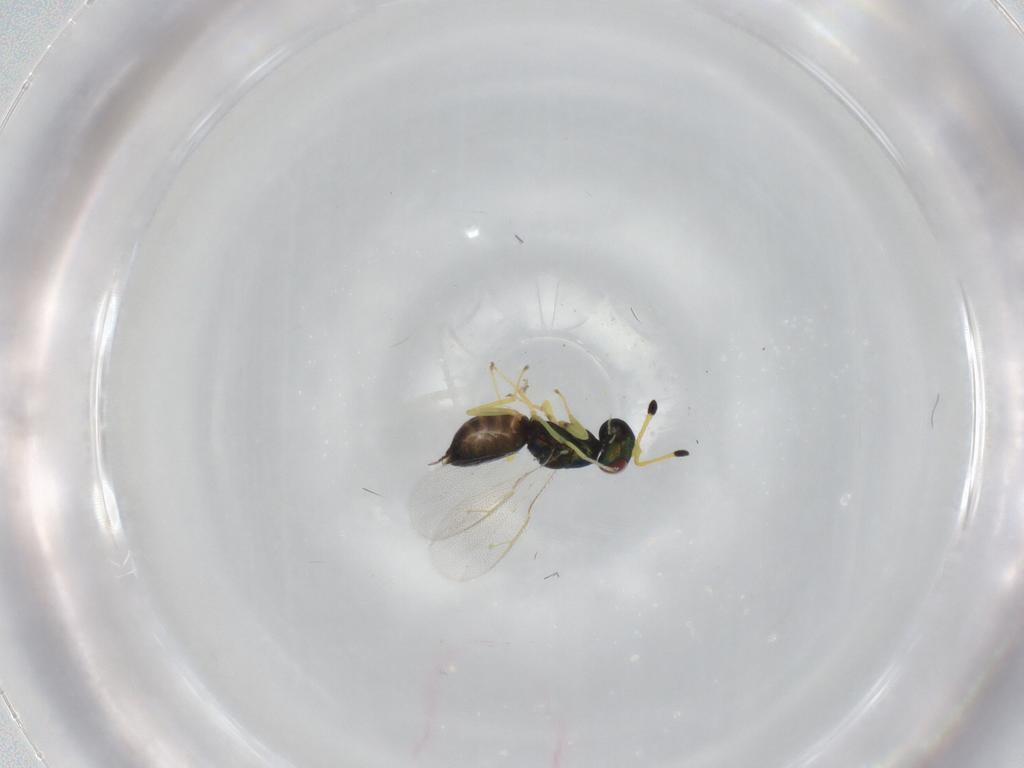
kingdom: Animalia
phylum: Arthropoda
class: Insecta
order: Hymenoptera
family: Pteromalidae
